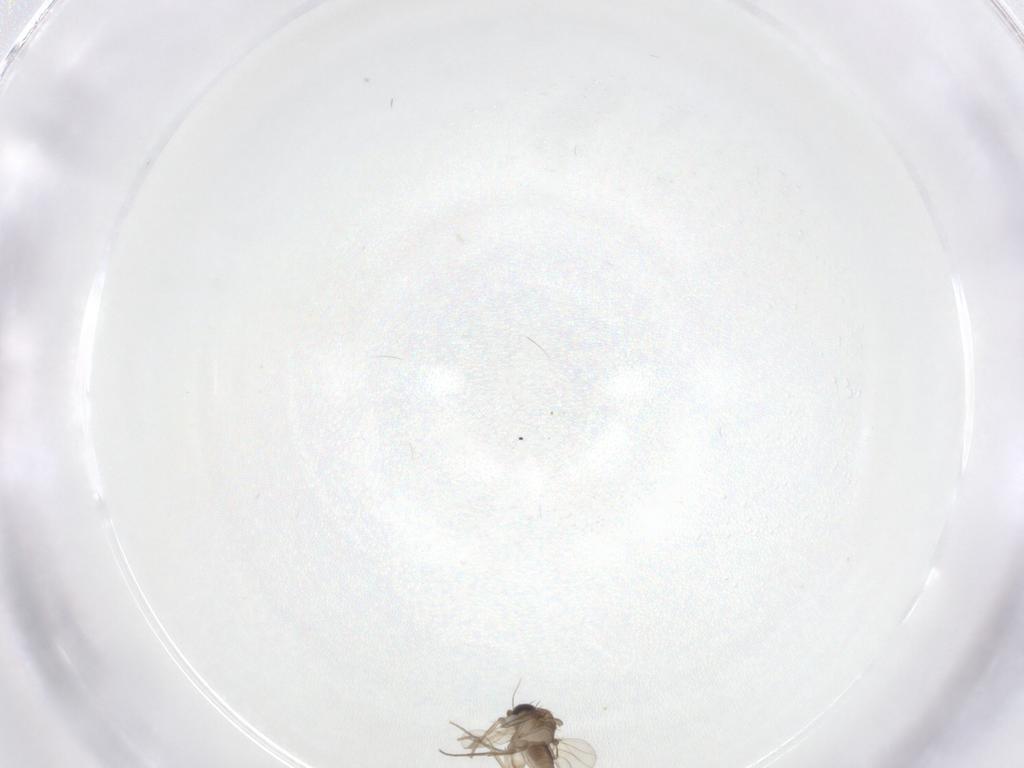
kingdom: Animalia
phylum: Arthropoda
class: Insecta
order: Diptera
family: Phoridae
